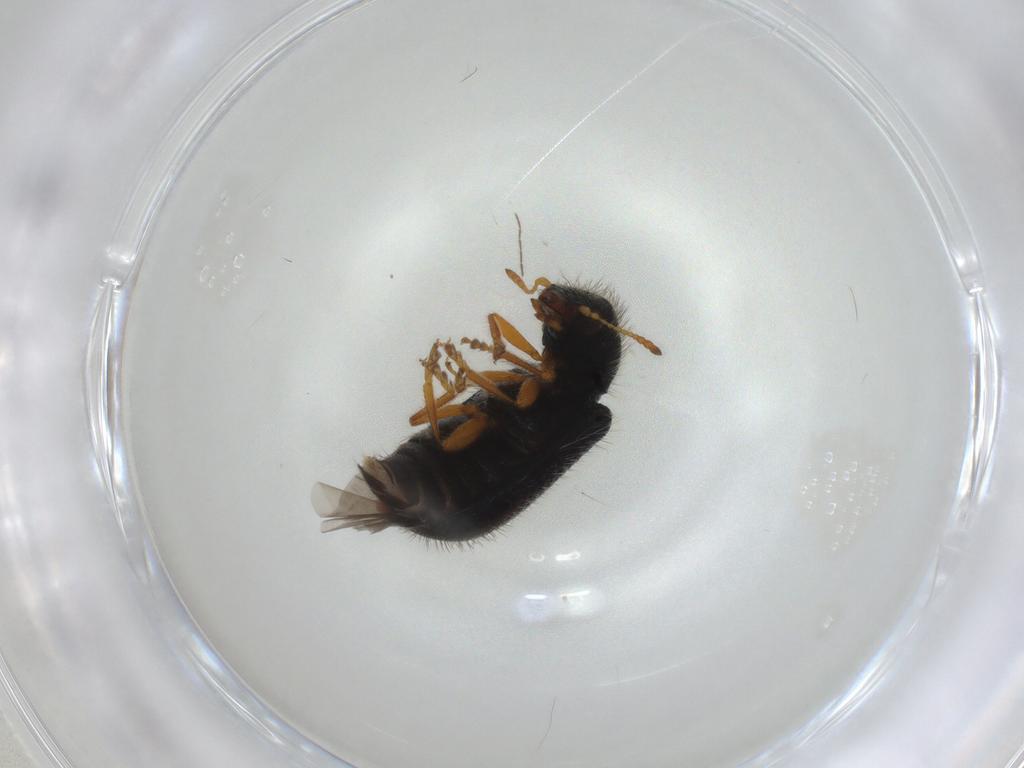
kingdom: Animalia
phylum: Arthropoda
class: Insecta
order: Coleoptera
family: Cleridae
